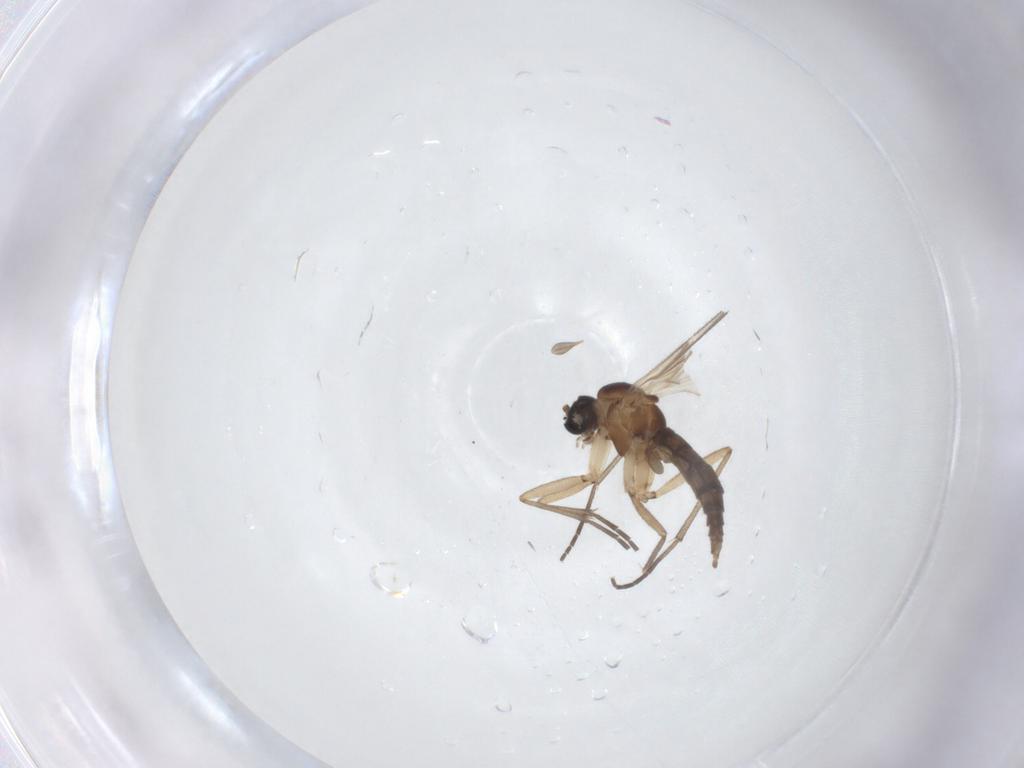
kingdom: Animalia
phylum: Arthropoda
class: Insecta
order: Diptera
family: Sciaridae
